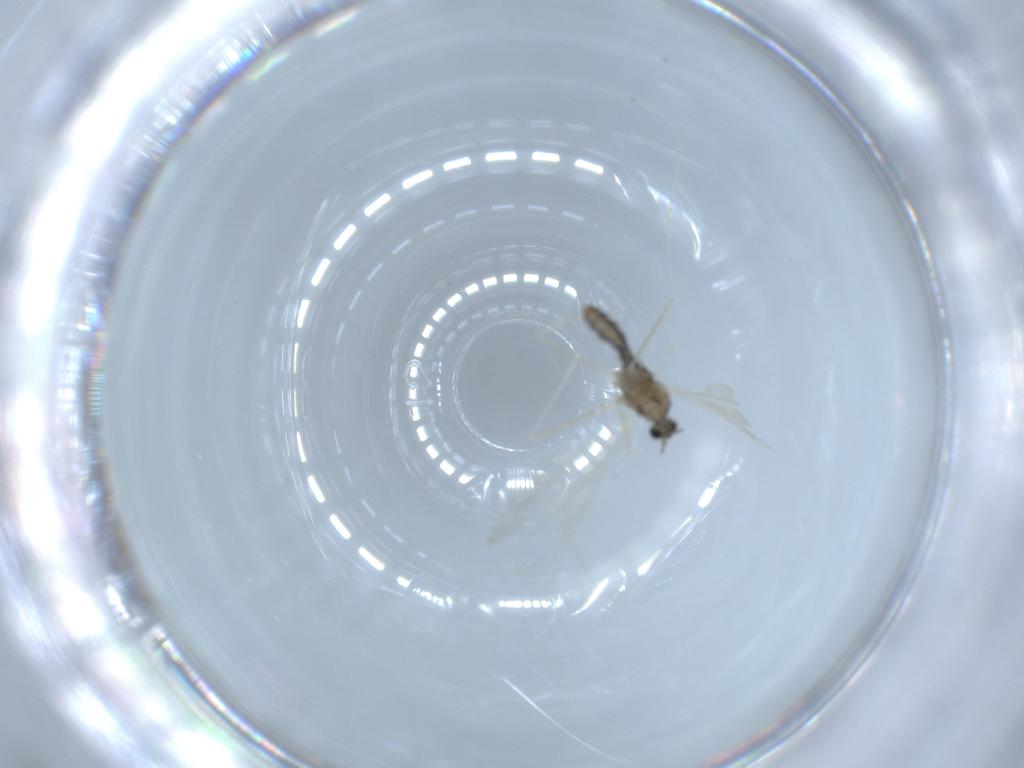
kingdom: Animalia
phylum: Arthropoda
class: Insecta
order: Diptera
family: Cecidomyiidae
